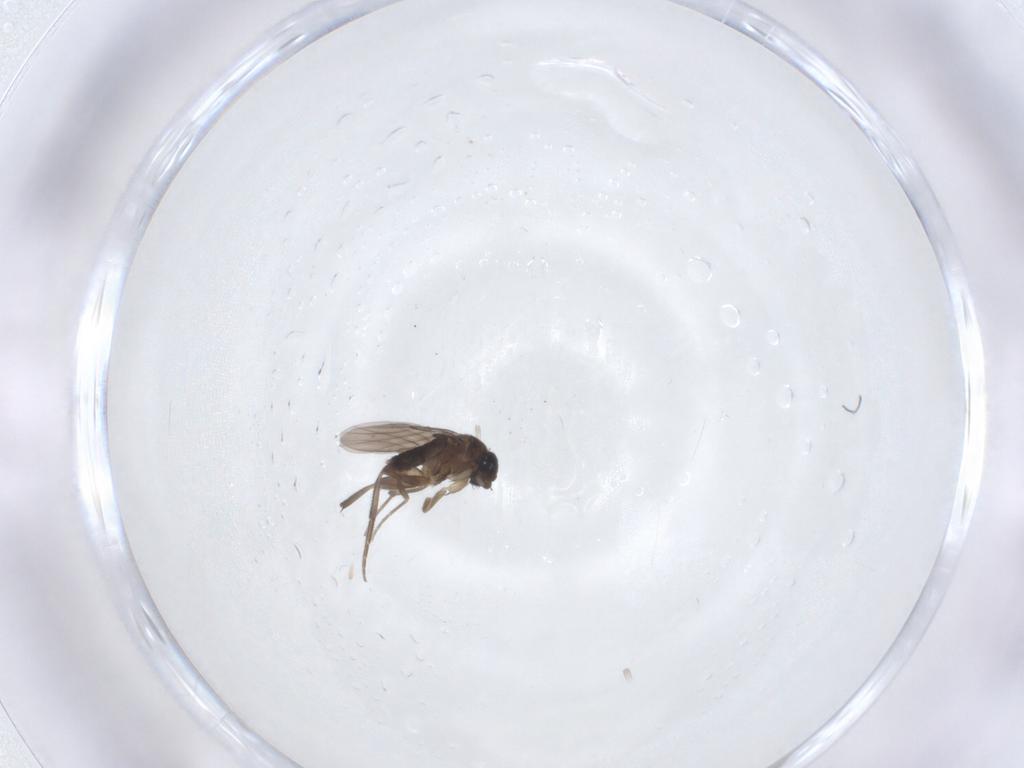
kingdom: Animalia
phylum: Arthropoda
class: Insecta
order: Diptera
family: Phoridae
